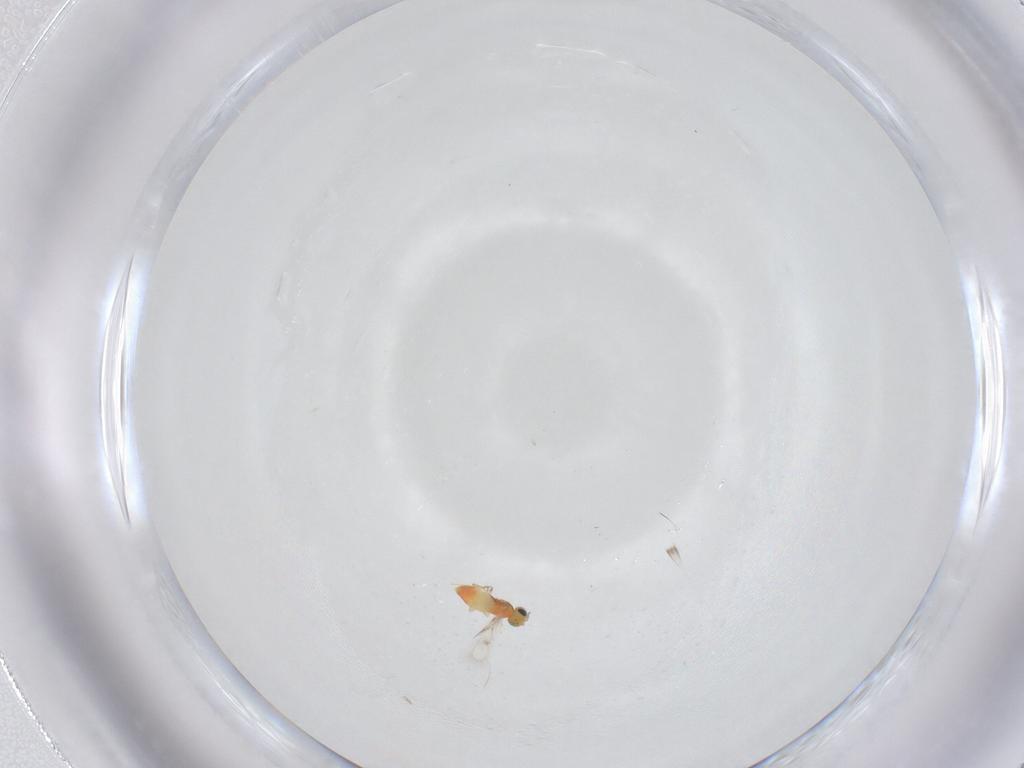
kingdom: Animalia
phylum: Arthropoda
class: Insecta
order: Hymenoptera
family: Trichogrammatidae
